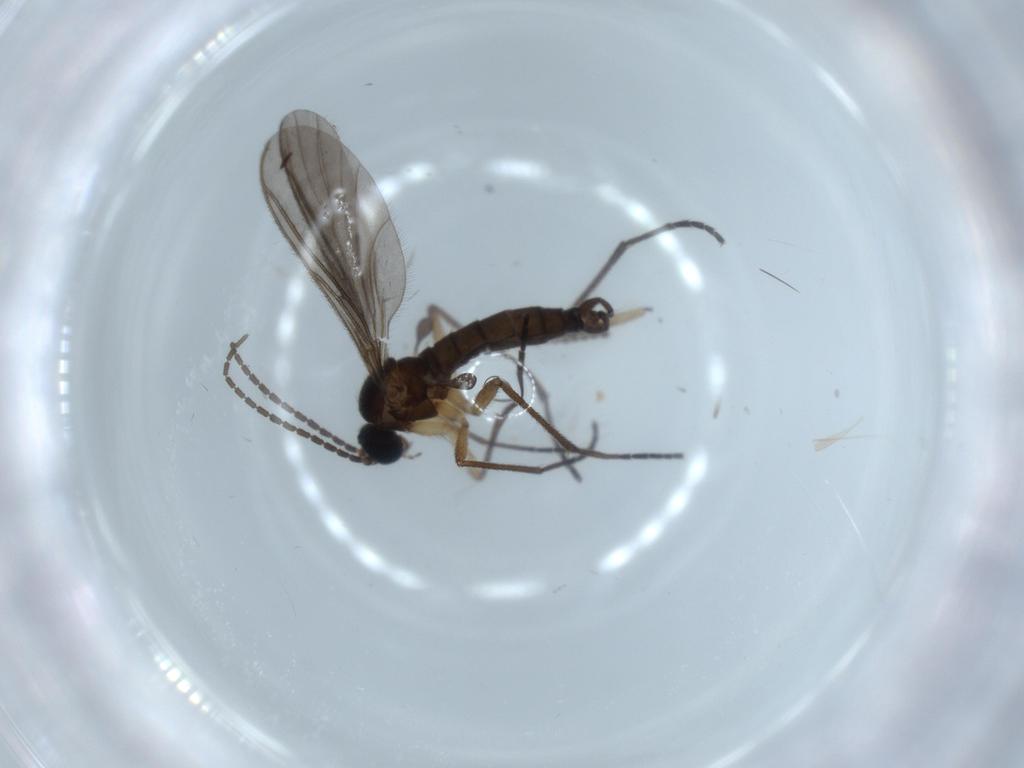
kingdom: Animalia
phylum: Arthropoda
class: Insecta
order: Diptera
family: Sciaridae
